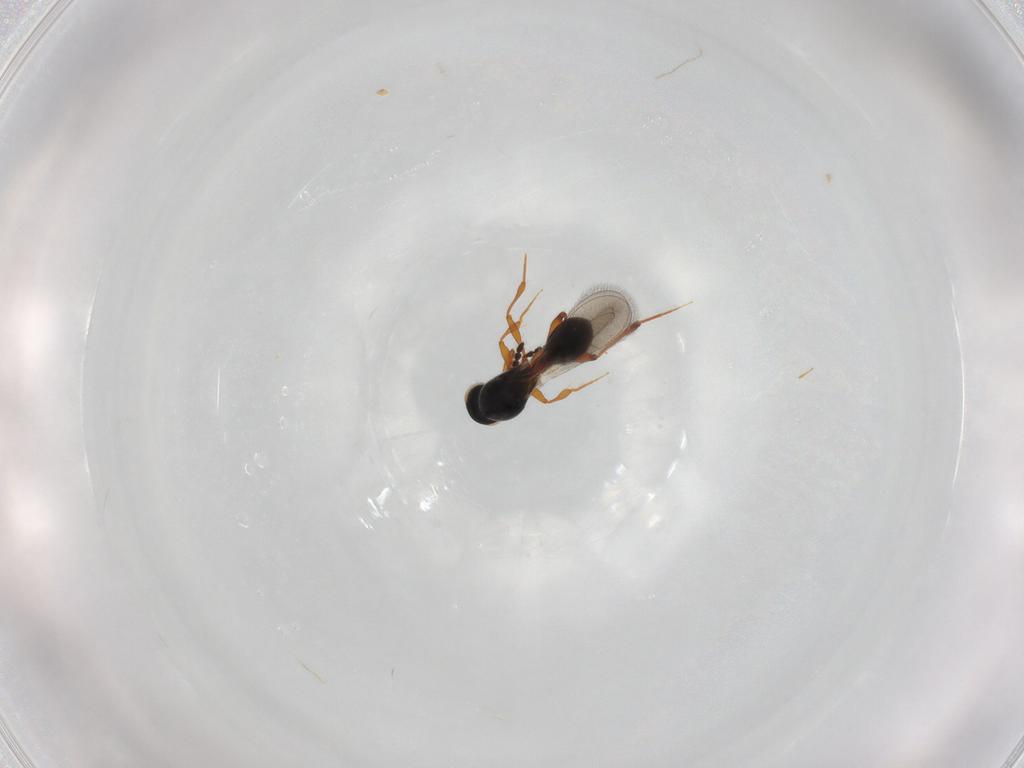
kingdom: Animalia
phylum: Arthropoda
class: Insecta
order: Hymenoptera
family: Platygastridae
